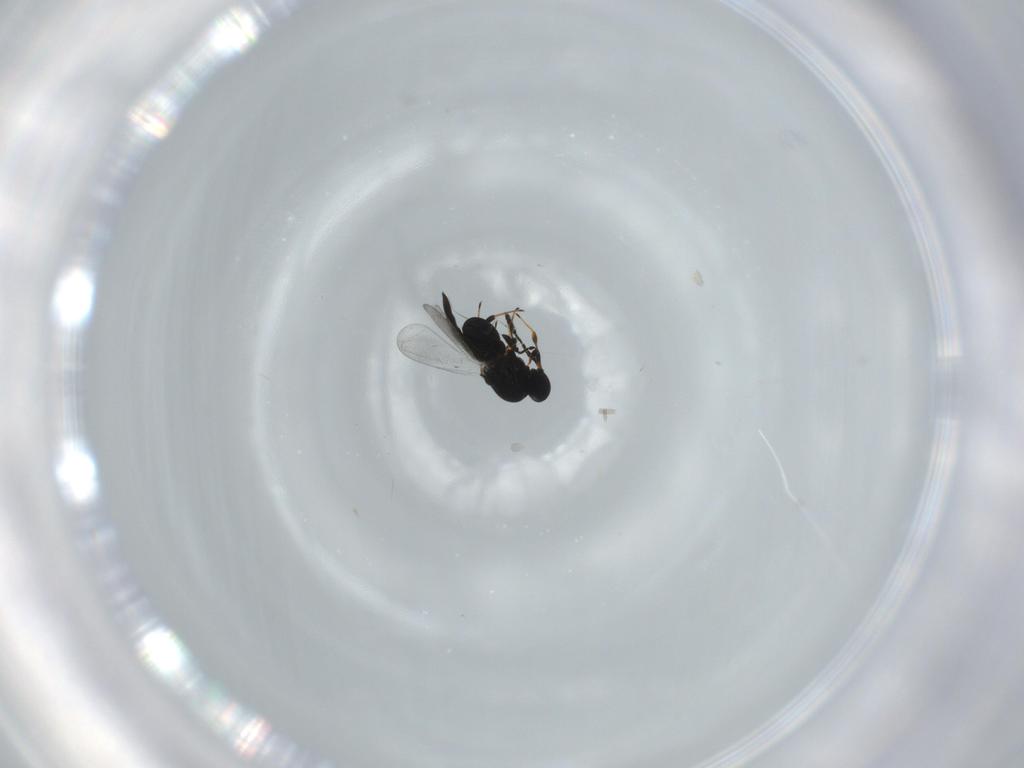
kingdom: Animalia
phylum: Arthropoda
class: Insecta
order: Hymenoptera
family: Platygastridae
